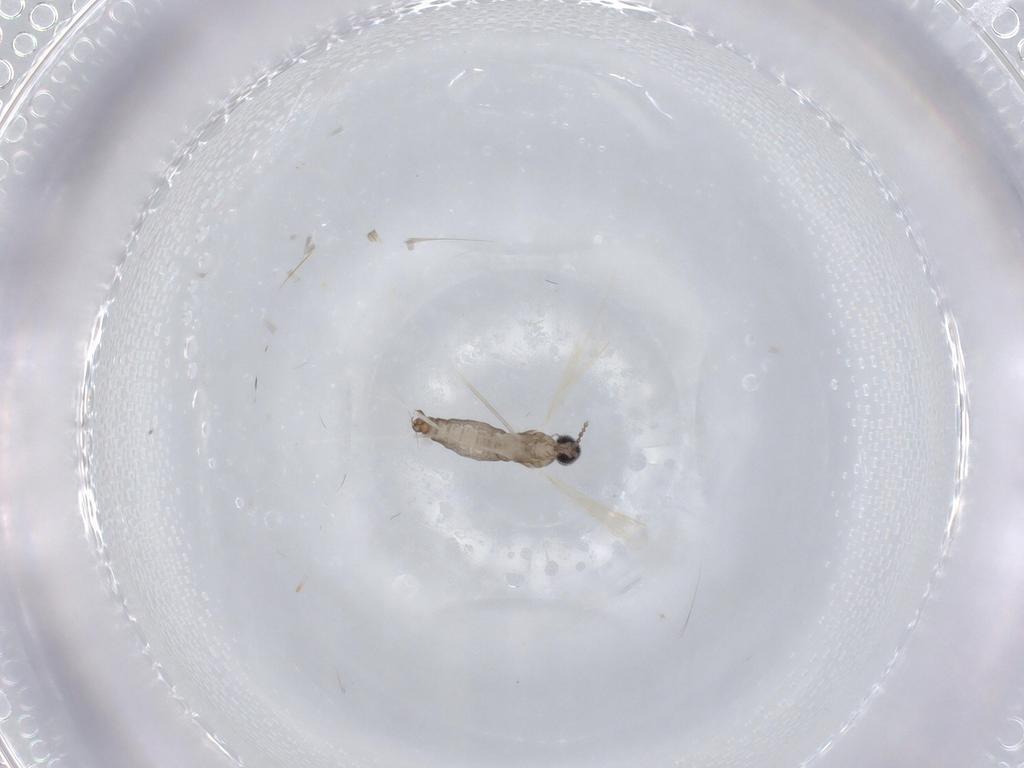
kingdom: Animalia
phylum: Arthropoda
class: Insecta
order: Diptera
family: Cecidomyiidae
